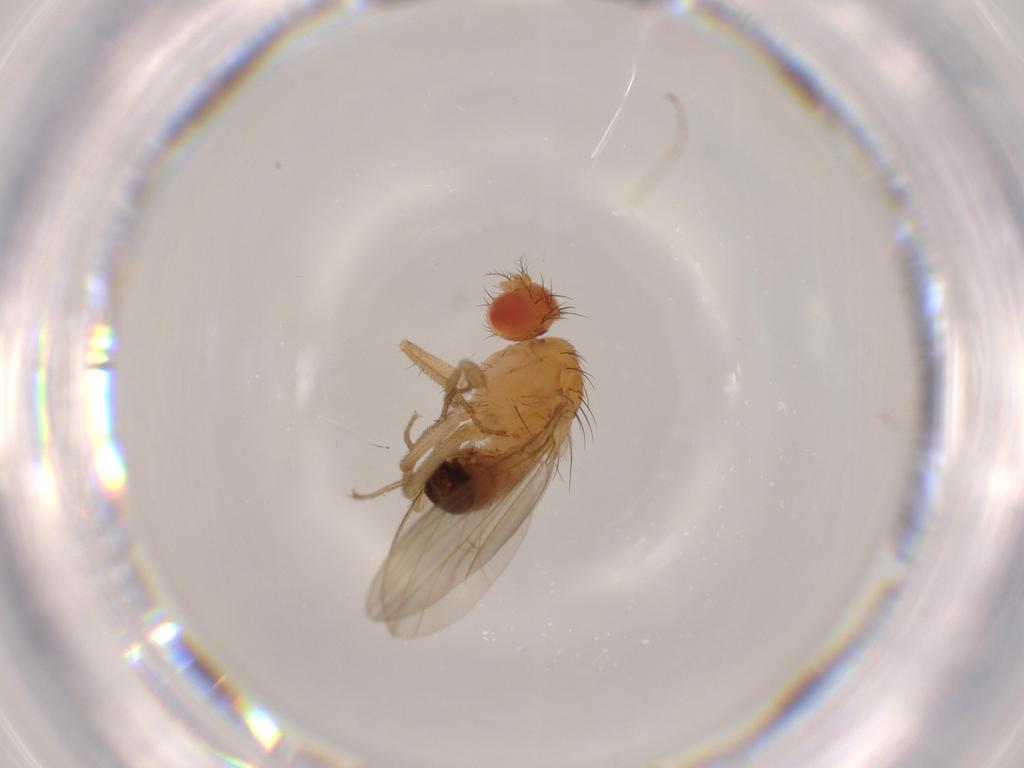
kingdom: Animalia
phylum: Arthropoda
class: Insecta
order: Diptera
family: Drosophilidae
